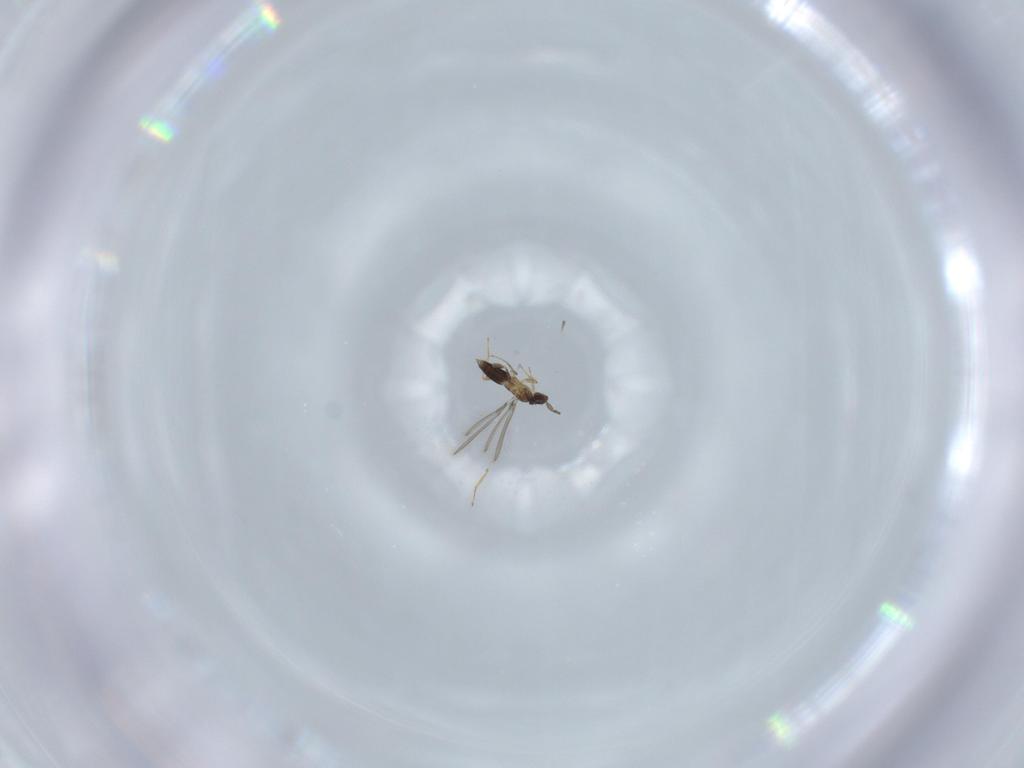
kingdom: Animalia
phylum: Arthropoda
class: Insecta
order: Hymenoptera
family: Mymaridae
